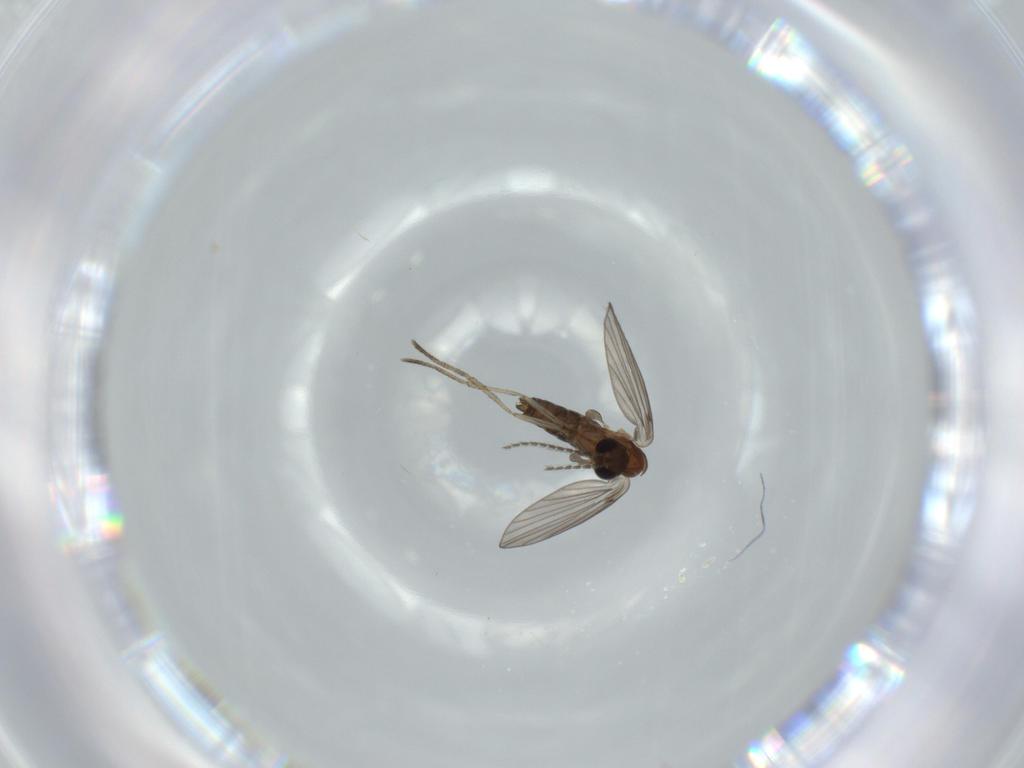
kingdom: Animalia
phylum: Arthropoda
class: Insecta
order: Diptera
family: Psychodidae
